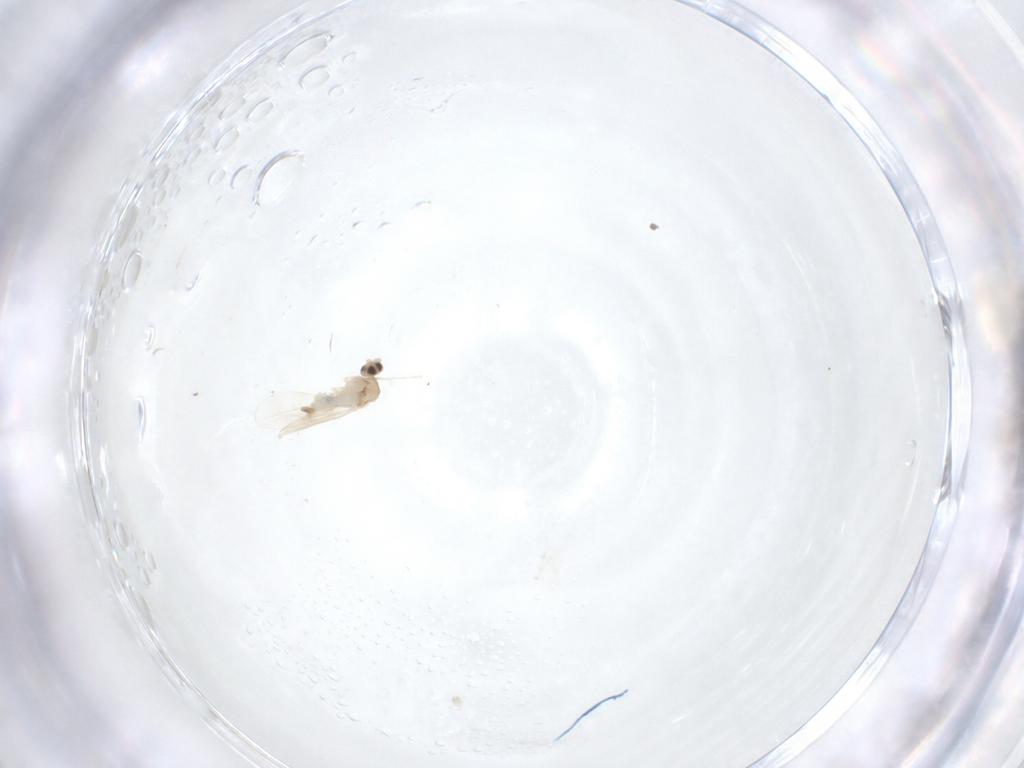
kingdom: Animalia
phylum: Arthropoda
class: Insecta
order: Diptera
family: Cecidomyiidae
